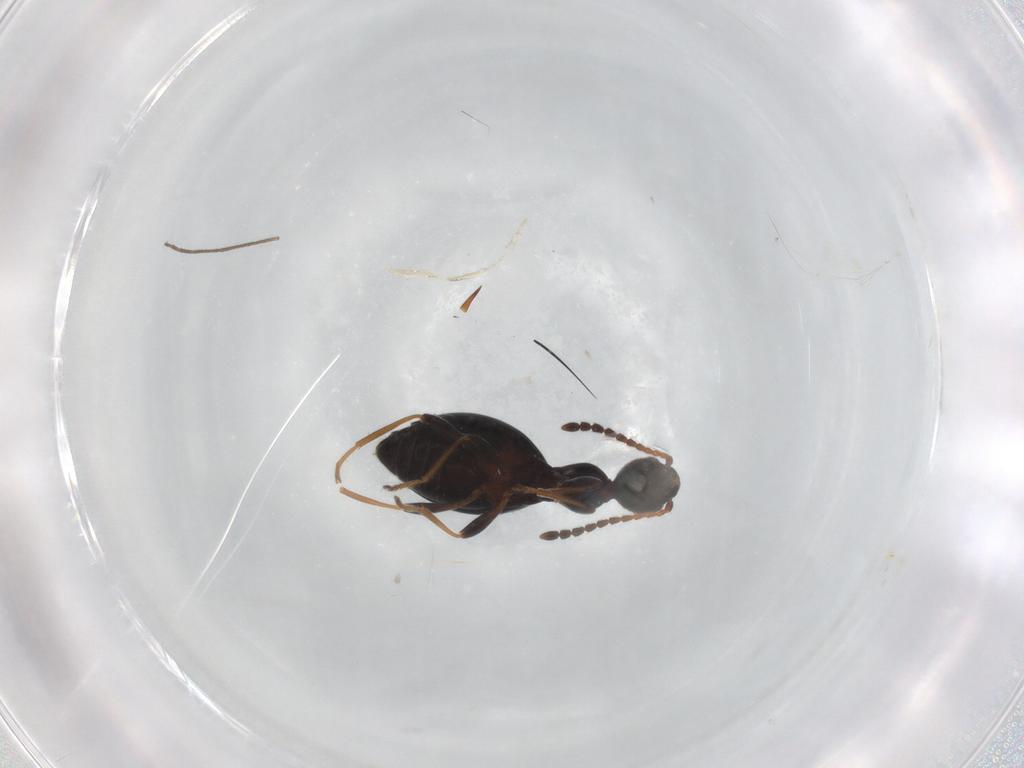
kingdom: Animalia
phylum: Arthropoda
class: Insecta
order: Coleoptera
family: Anthicidae
